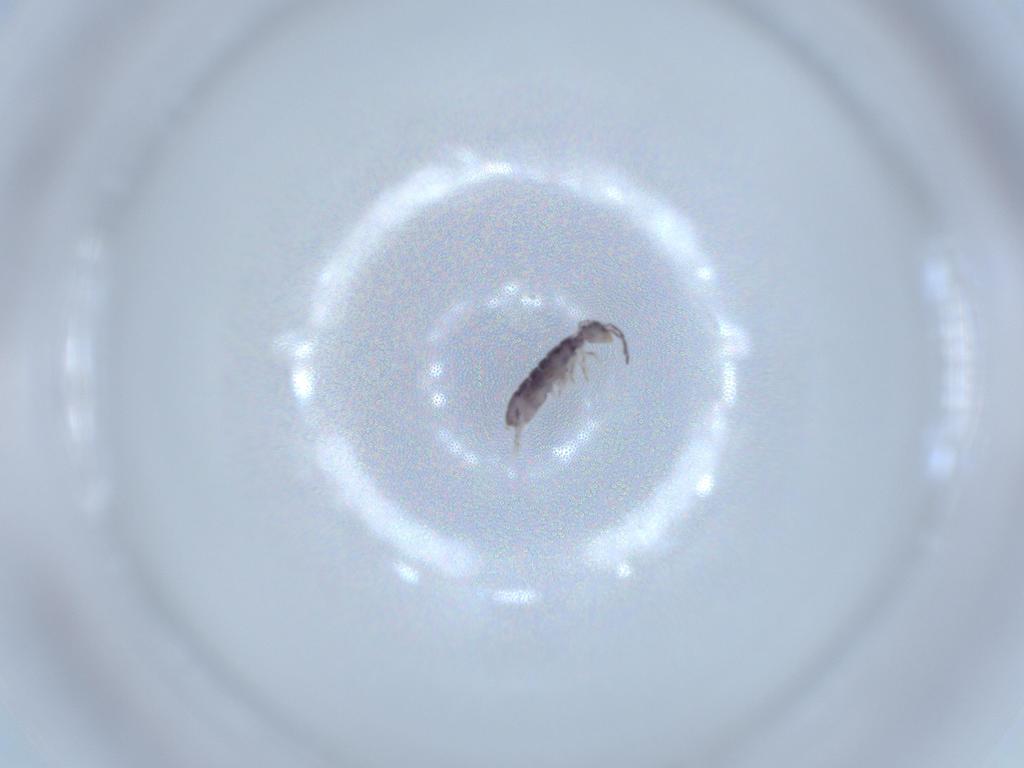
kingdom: Animalia
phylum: Arthropoda
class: Collembola
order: Entomobryomorpha
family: Isotomidae
